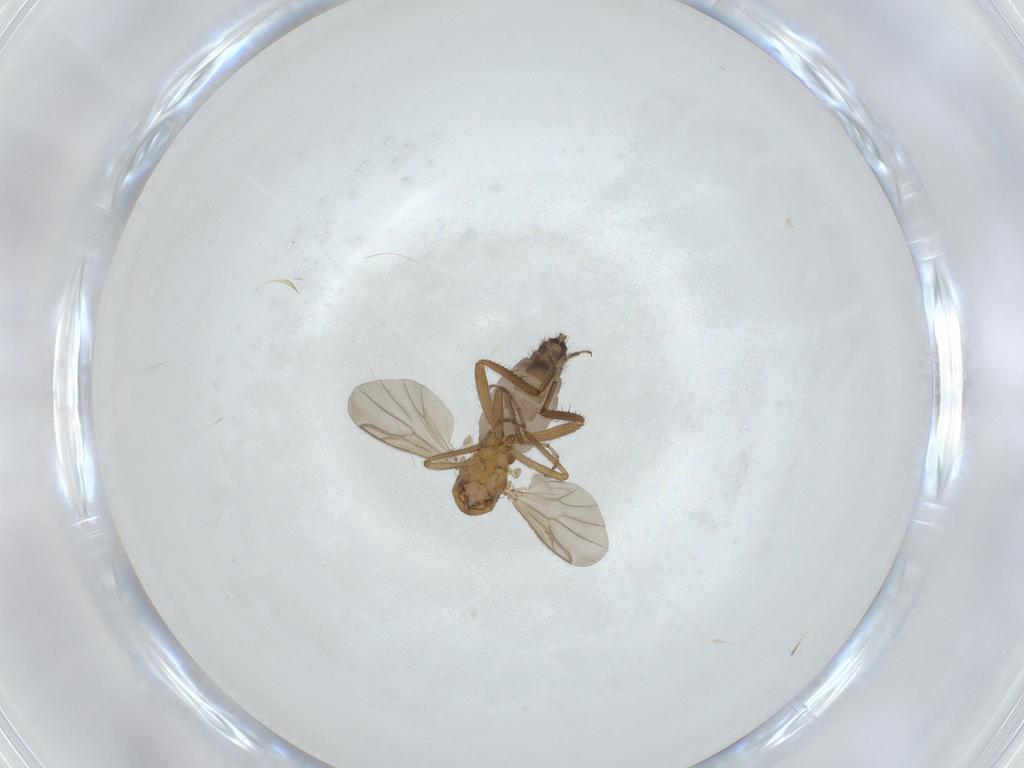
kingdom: Animalia
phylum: Arthropoda
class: Insecta
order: Diptera
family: Ceratopogonidae
